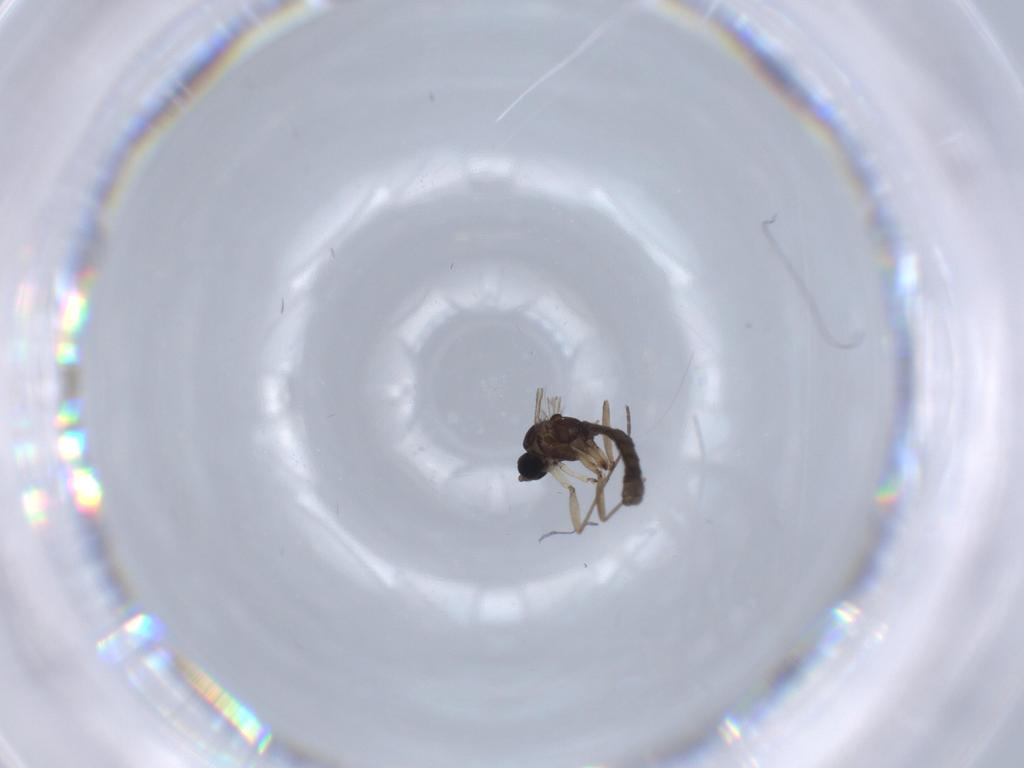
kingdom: Animalia
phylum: Arthropoda
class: Insecta
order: Diptera
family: Sciaridae
